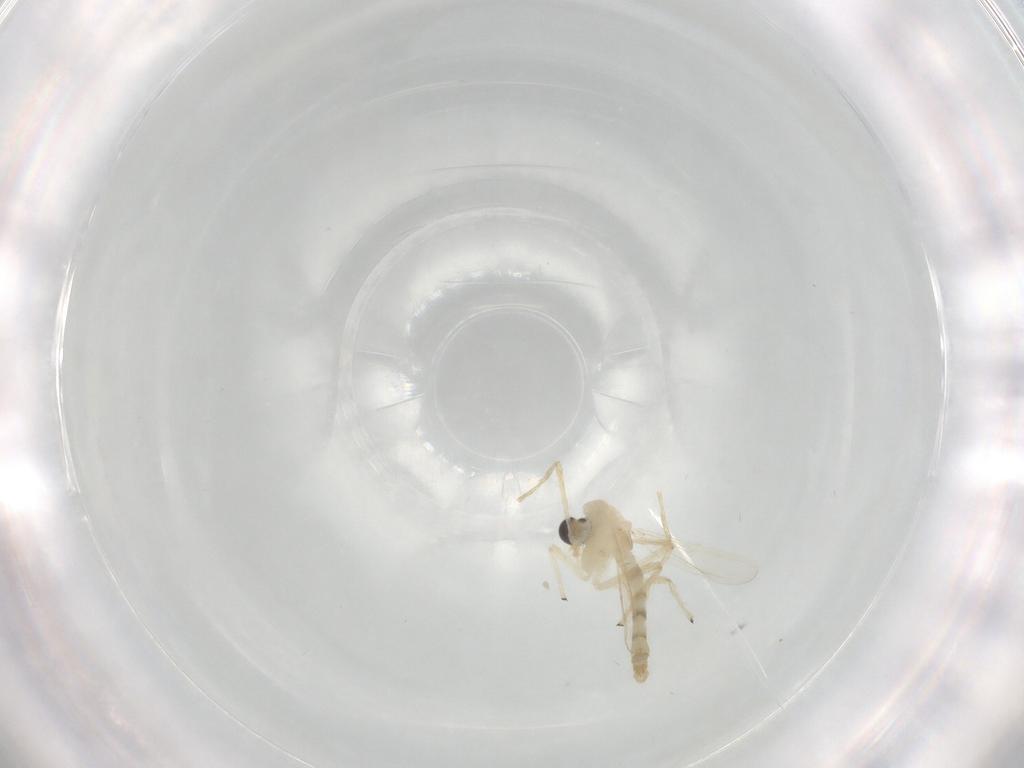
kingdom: Animalia
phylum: Arthropoda
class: Insecta
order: Diptera
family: Chironomidae
